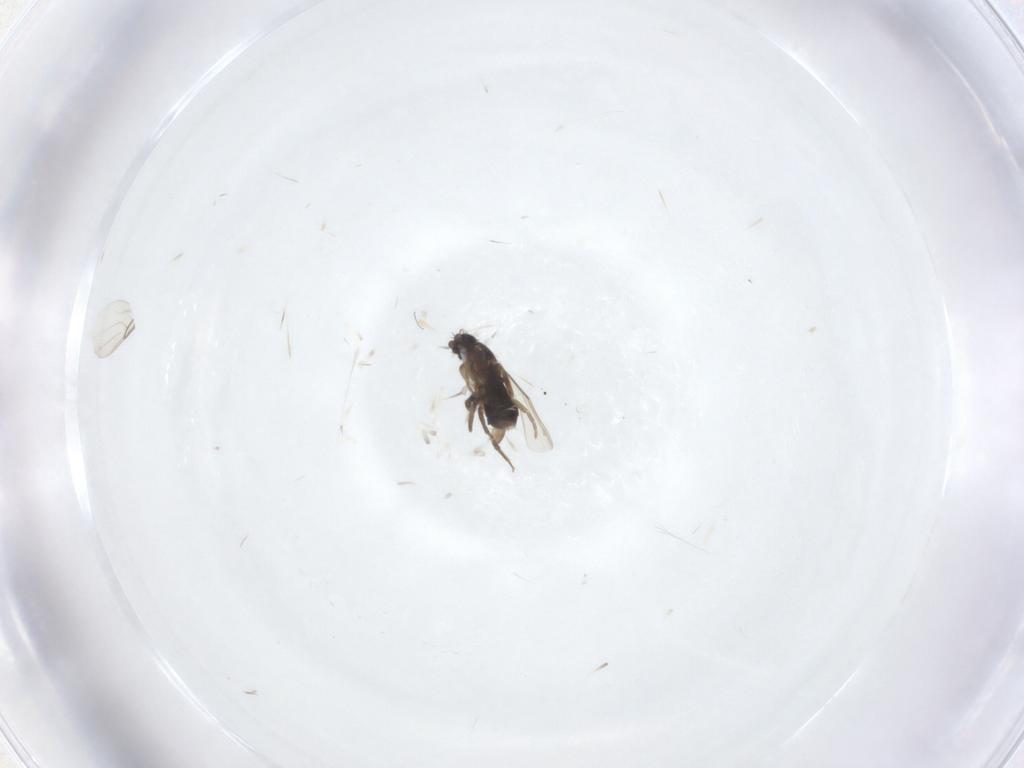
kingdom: Animalia
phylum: Arthropoda
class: Insecta
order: Diptera
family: Phoridae
